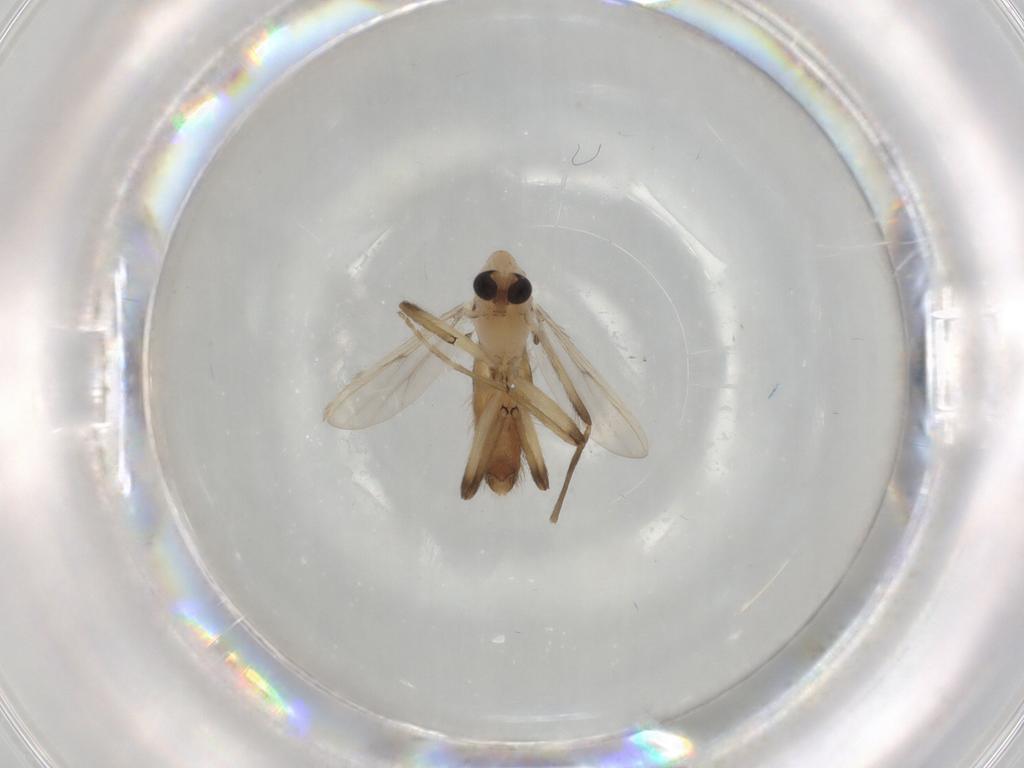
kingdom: Animalia
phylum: Arthropoda
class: Insecta
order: Diptera
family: Chironomidae
